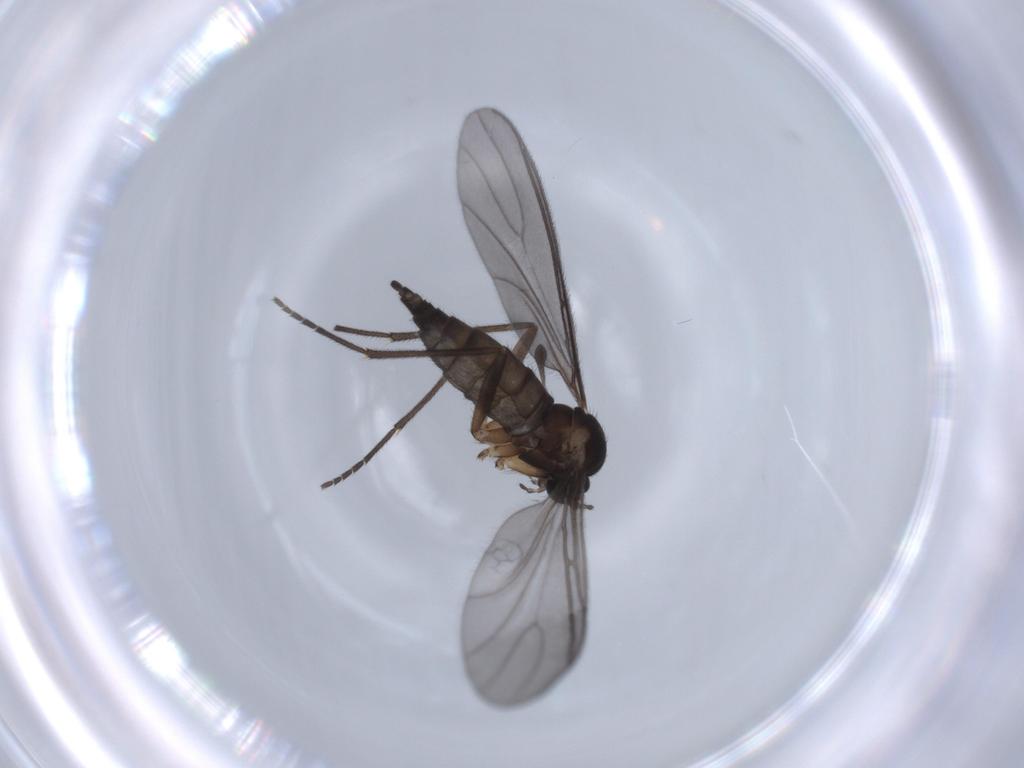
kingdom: Animalia
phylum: Arthropoda
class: Insecta
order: Diptera
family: Sciaridae
